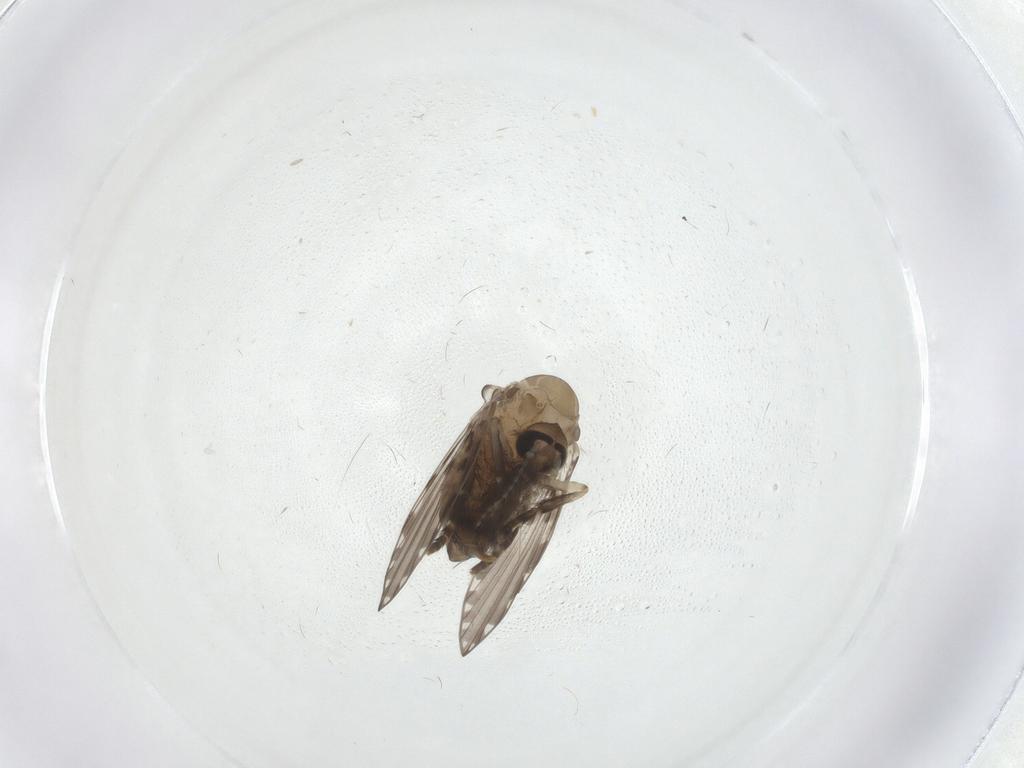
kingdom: Animalia
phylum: Arthropoda
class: Insecta
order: Diptera
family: Psychodidae
